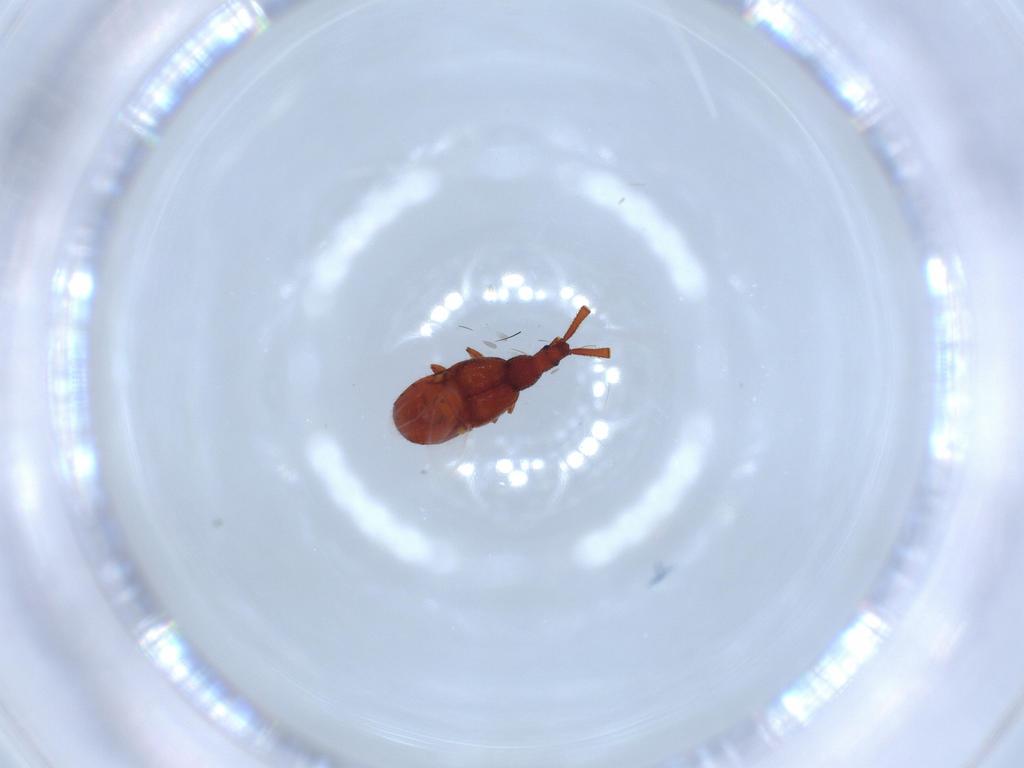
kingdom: Animalia
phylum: Arthropoda
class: Insecta
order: Coleoptera
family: Staphylinidae
